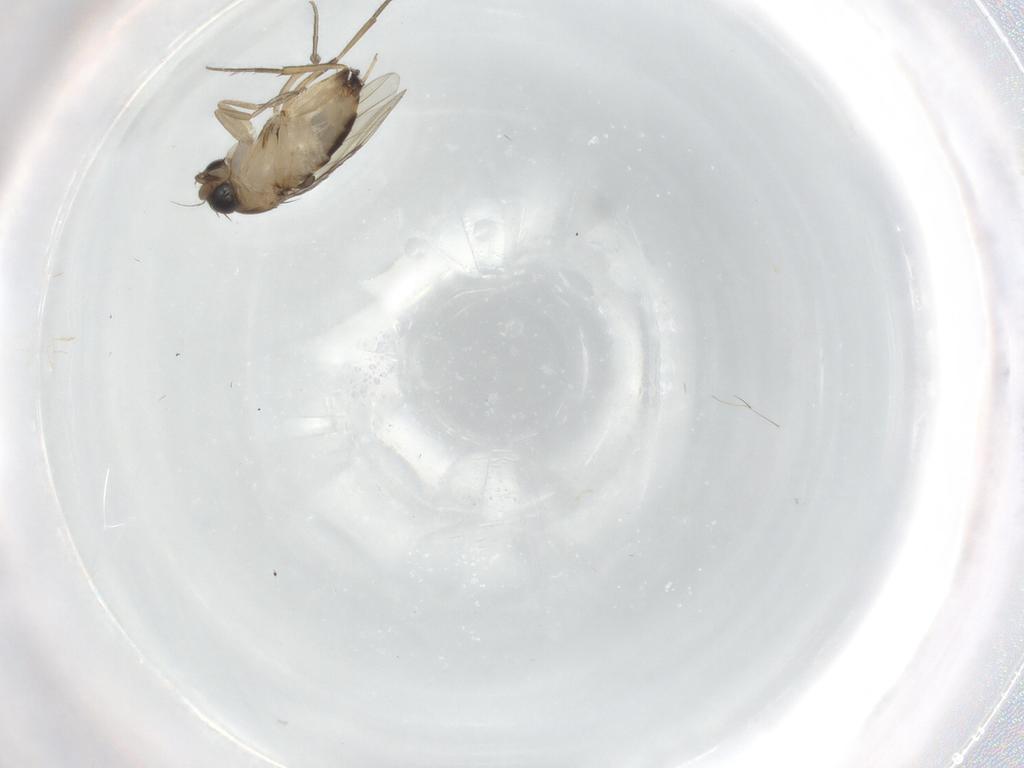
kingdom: Animalia
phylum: Arthropoda
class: Insecta
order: Diptera
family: Phoridae
